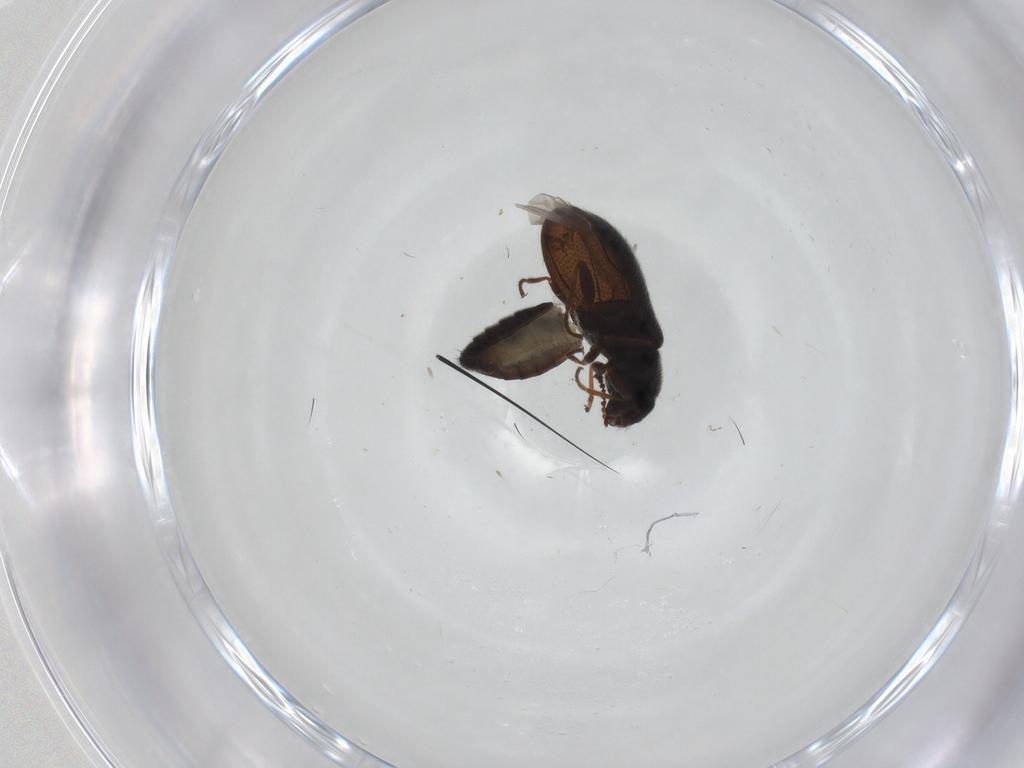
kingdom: Animalia
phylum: Arthropoda
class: Insecta
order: Coleoptera
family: Melyridae
